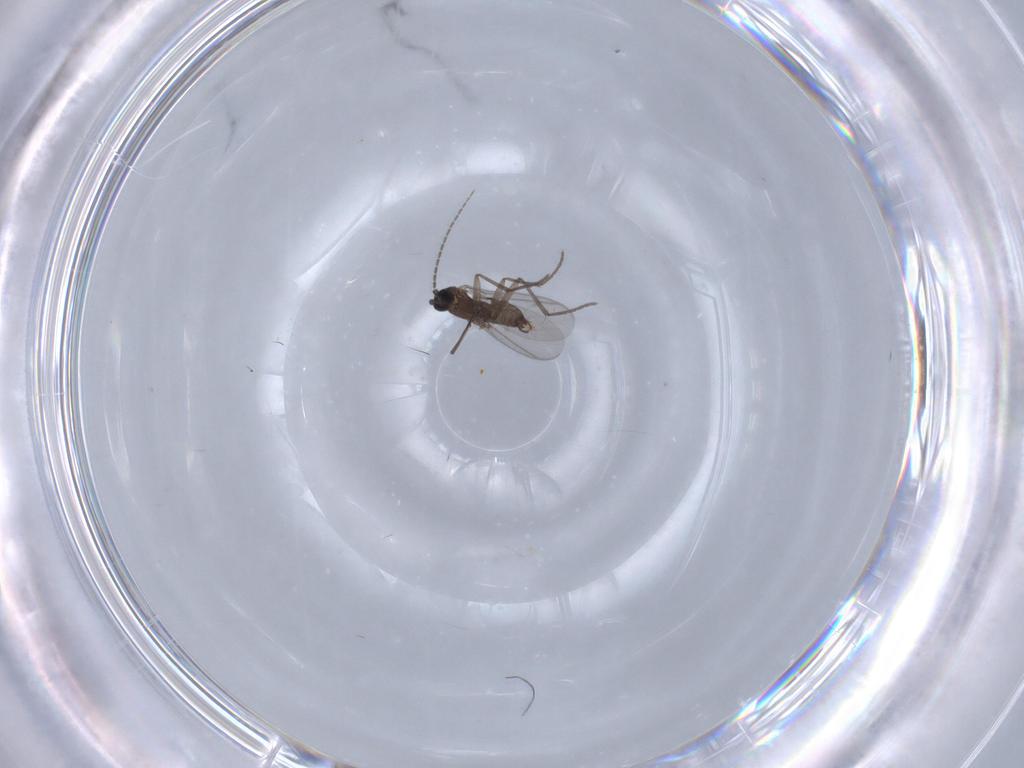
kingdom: Animalia
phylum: Arthropoda
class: Insecta
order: Diptera
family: Sciaridae
